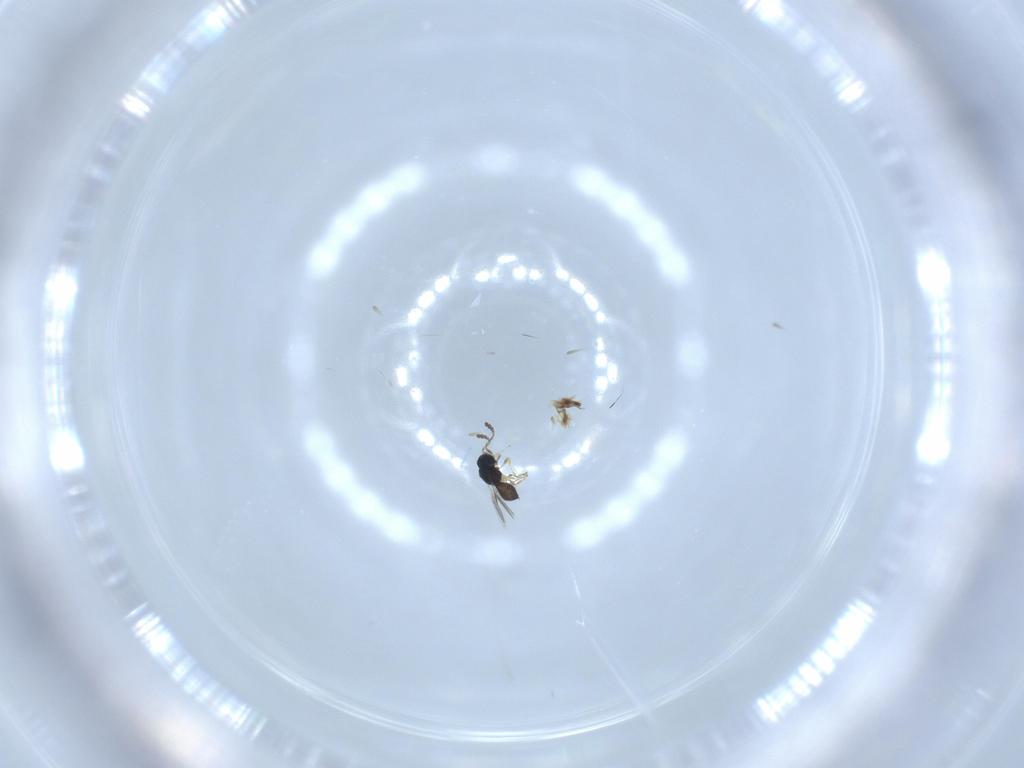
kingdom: Animalia
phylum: Arthropoda
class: Insecta
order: Hymenoptera
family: Scelionidae
